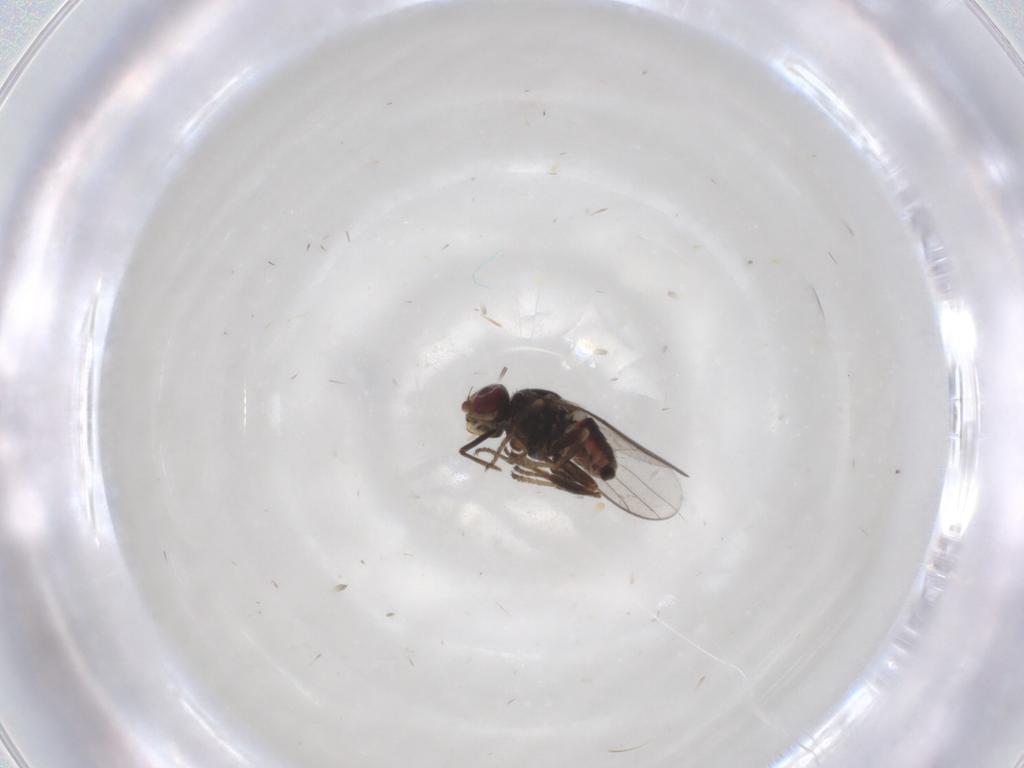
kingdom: Animalia
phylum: Arthropoda
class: Insecta
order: Diptera
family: Chloropidae
